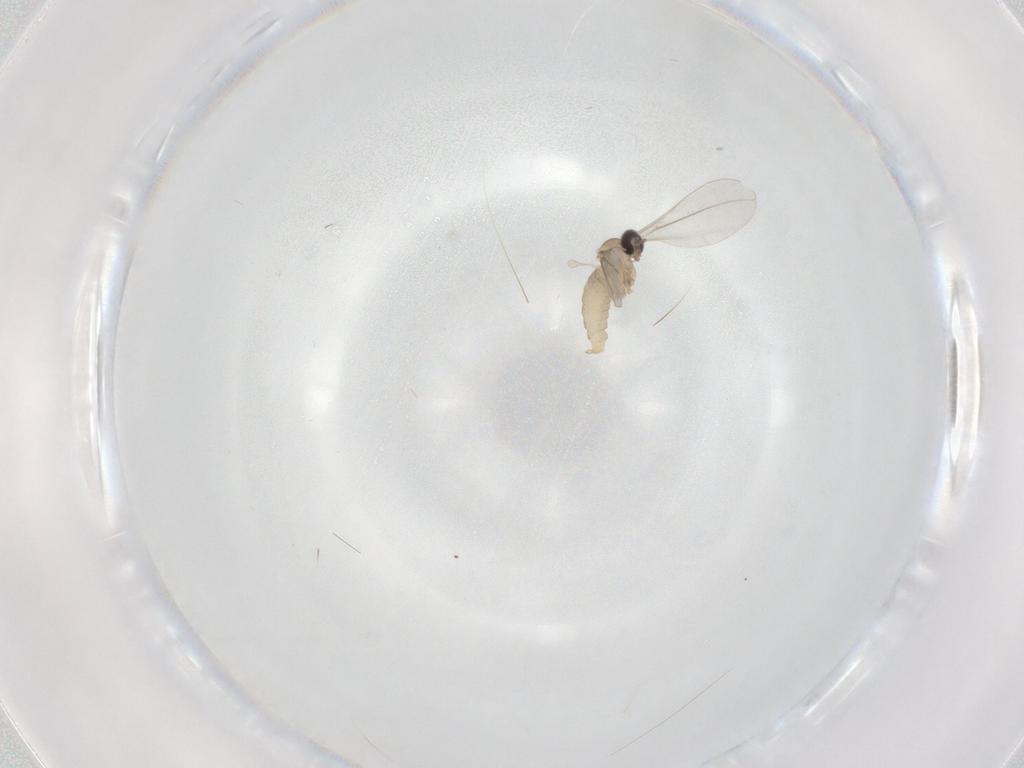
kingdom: Animalia
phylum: Arthropoda
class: Insecta
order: Diptera
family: Cecidomyiidae
